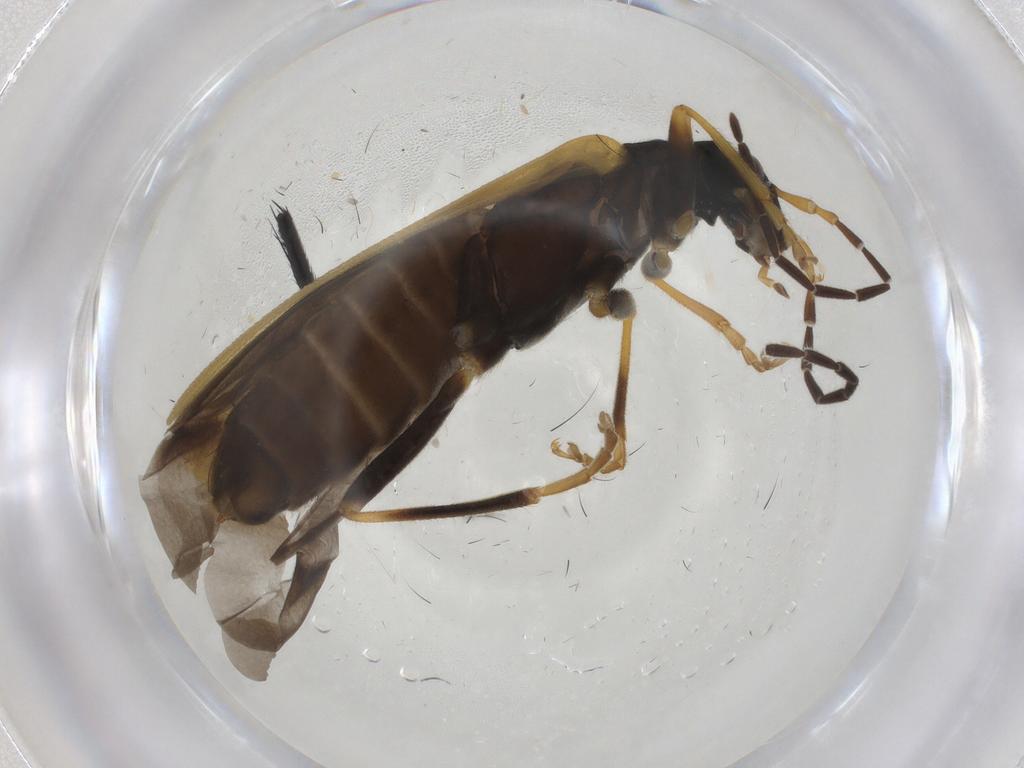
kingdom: Animalia
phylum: Arthropoda
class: Insecta
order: Coleoptera
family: Cantharidae
